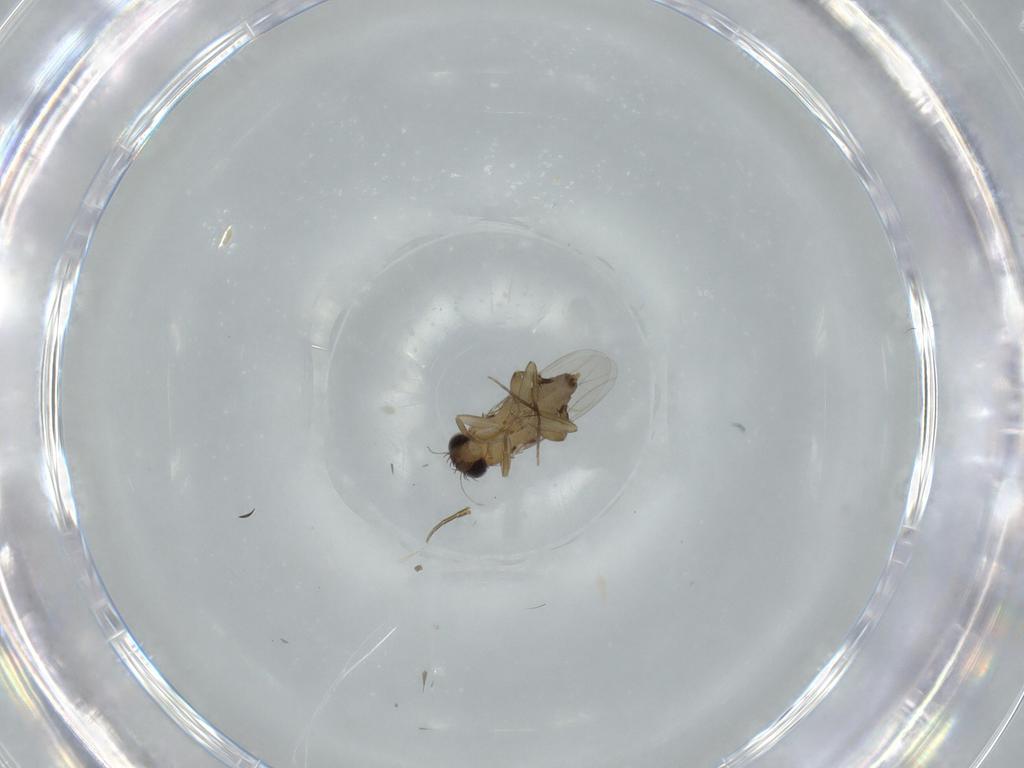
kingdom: Animalia
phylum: Arthropoda
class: Insecta
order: Diptera
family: Phoridae
